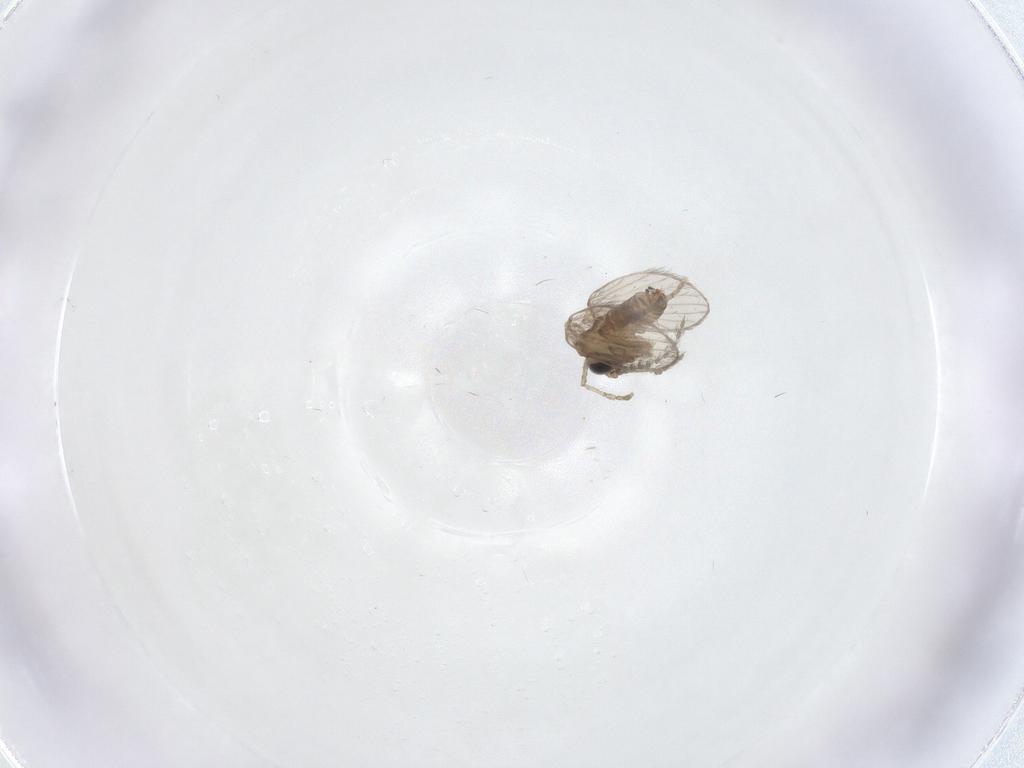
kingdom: Animalia
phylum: Arthropoda
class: Insecta
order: Diptera
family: Psychodidae
